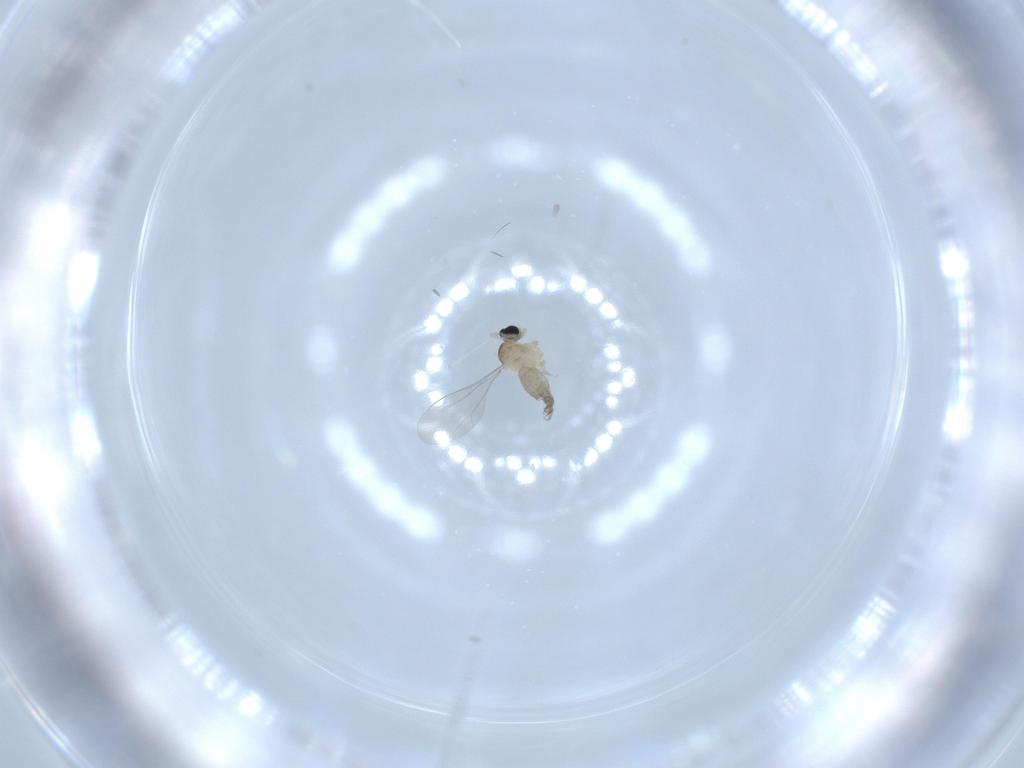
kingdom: Animalia
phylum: Arthropoda
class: Insecta
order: Diptera
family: Cecidomyiidae
